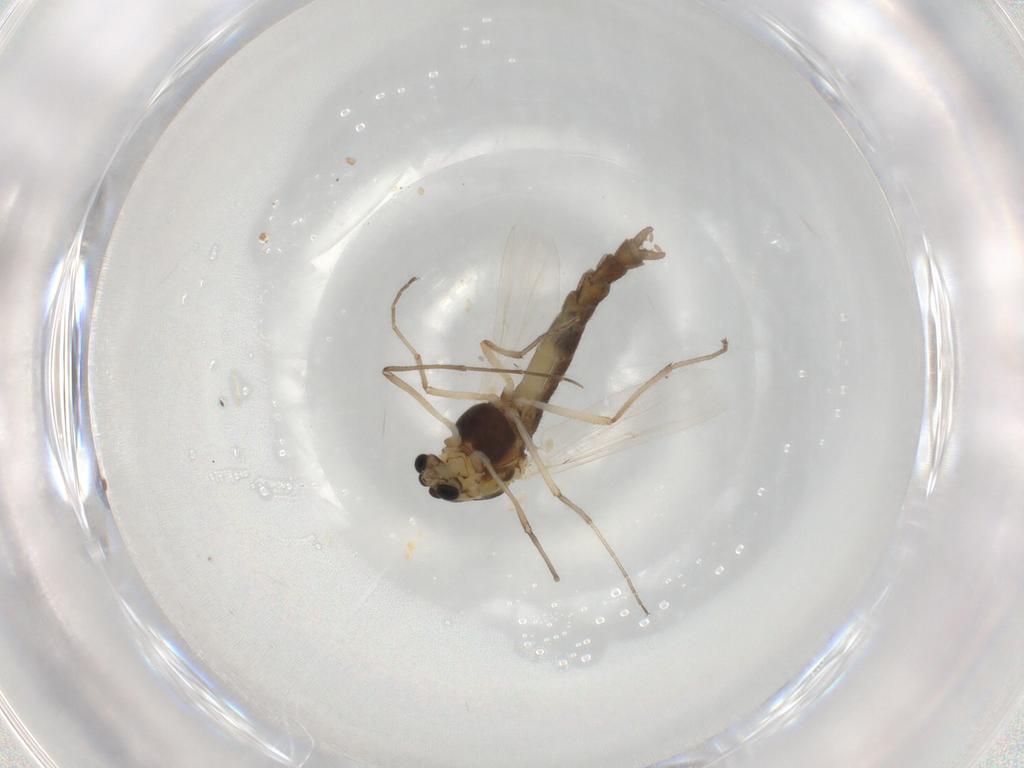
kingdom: Animalia
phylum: Arthropoda
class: Insecta
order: Diptera
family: Chironomidae
